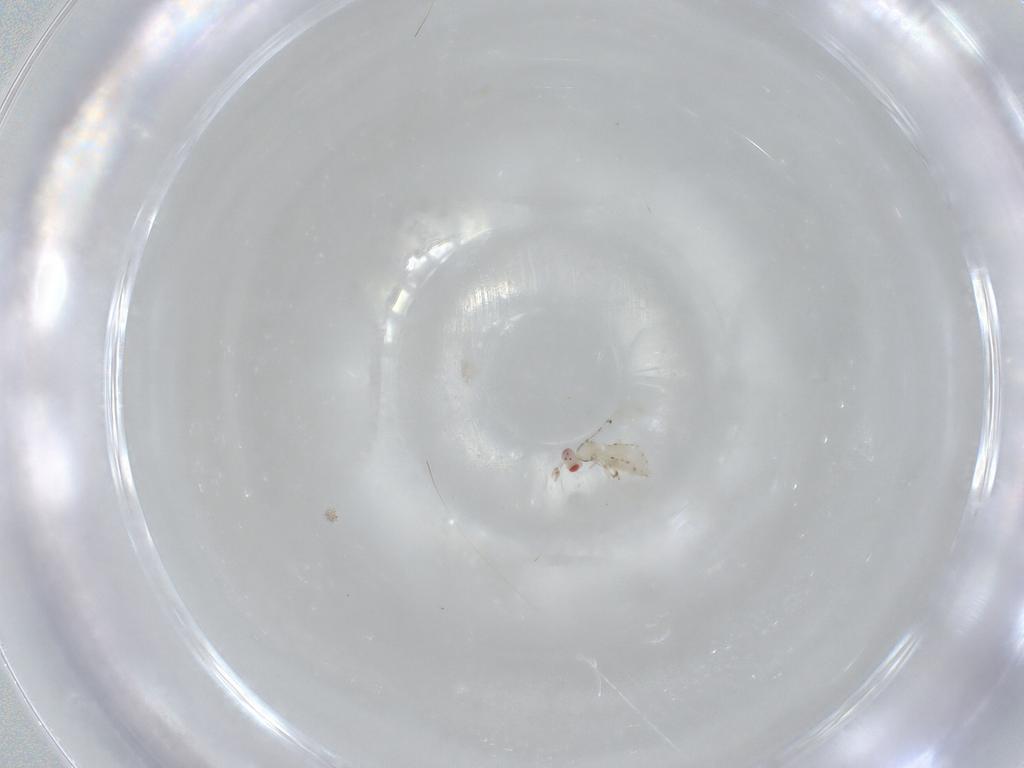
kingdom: Animalia
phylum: Arthropoda
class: Insecta
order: Hymenoptera
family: Trichogrammatidae
